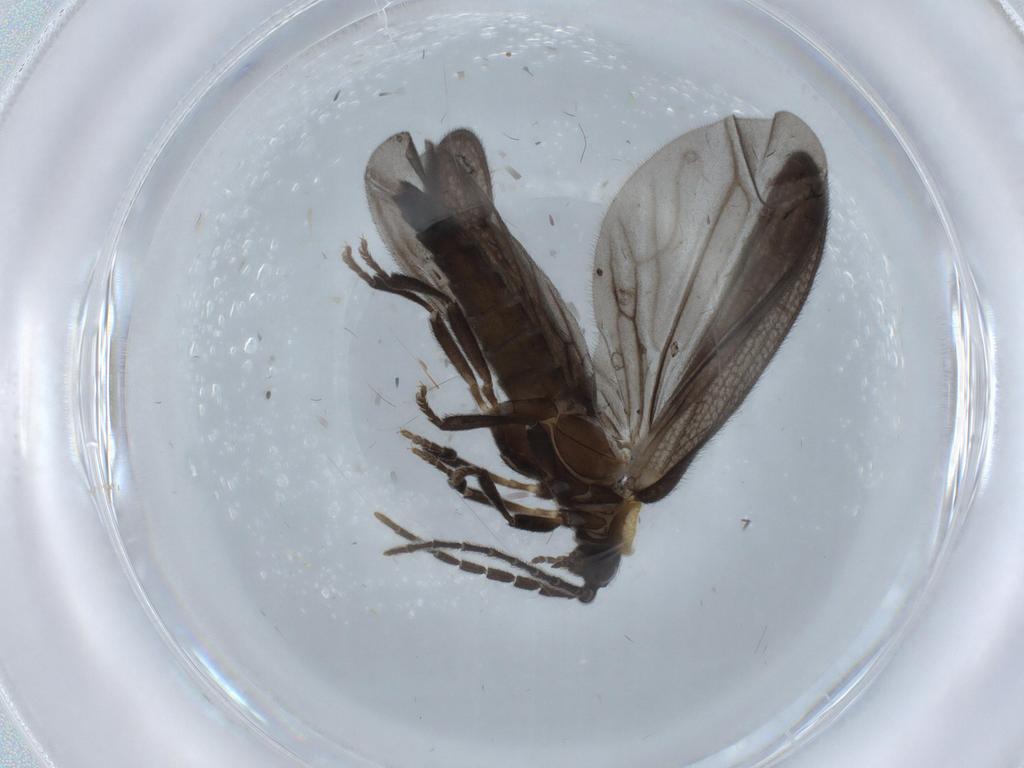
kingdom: Animalia
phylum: Arthropoda
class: Insecta
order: Coleoptera
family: Lycidae
